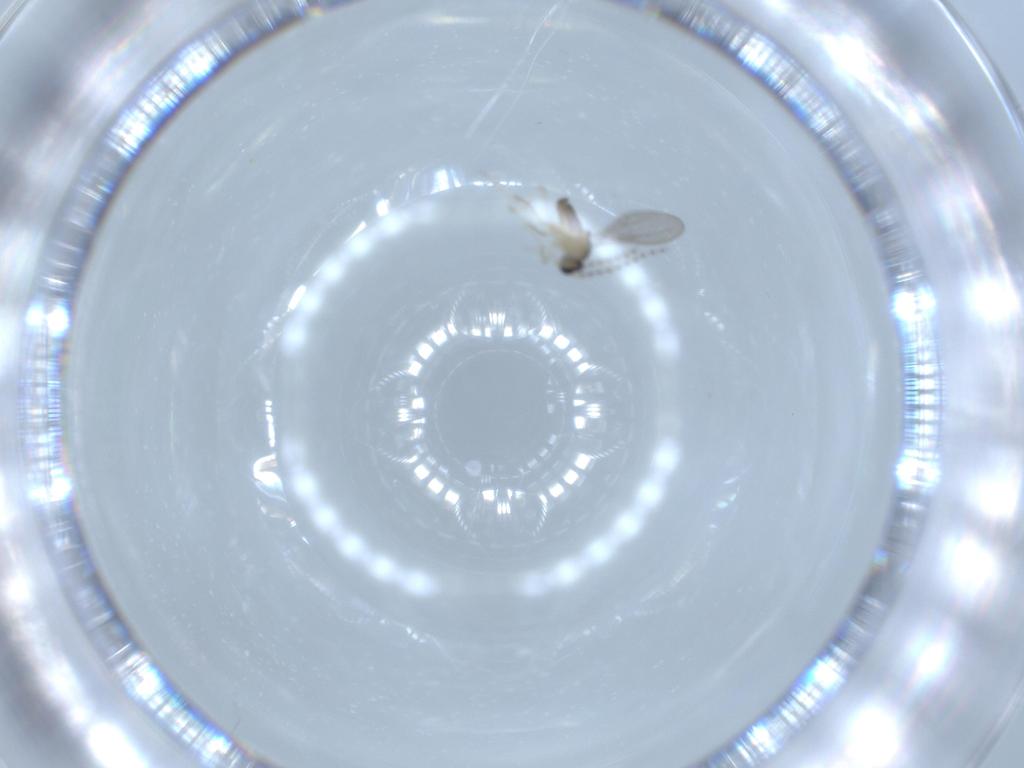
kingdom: Animalia
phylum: Arthropoda
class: Insecta
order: Diptera
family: Cecidomyiidae
